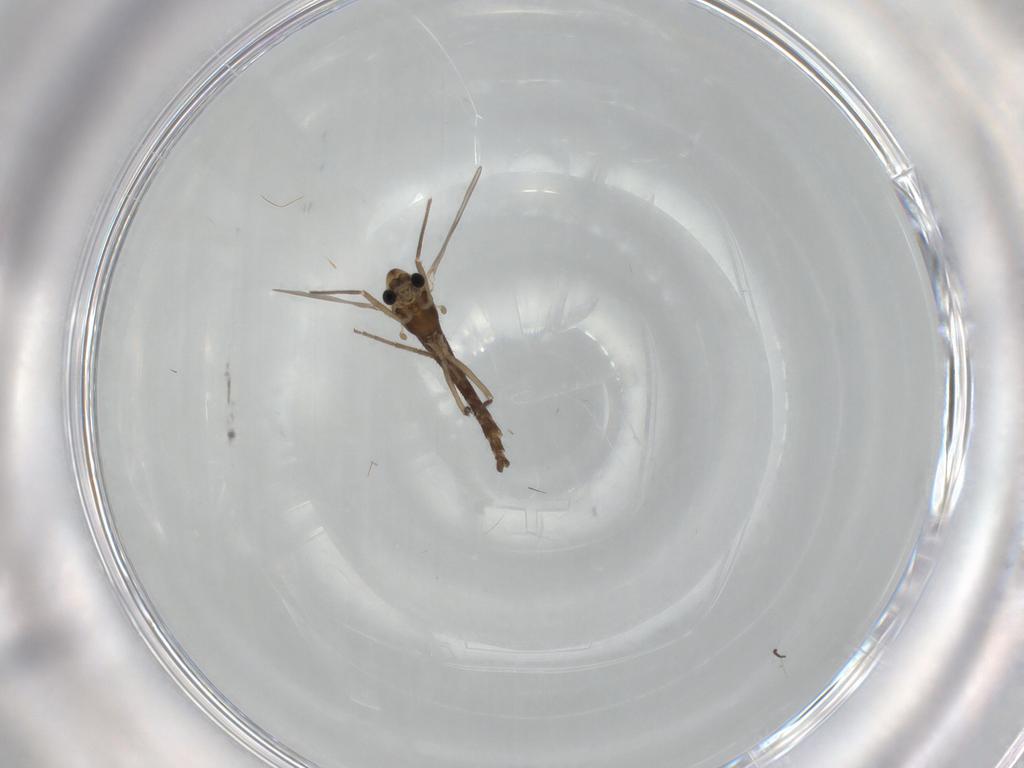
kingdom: Animalia
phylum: Arthropoda
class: Insecta
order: Diptera
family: Chironomidae
